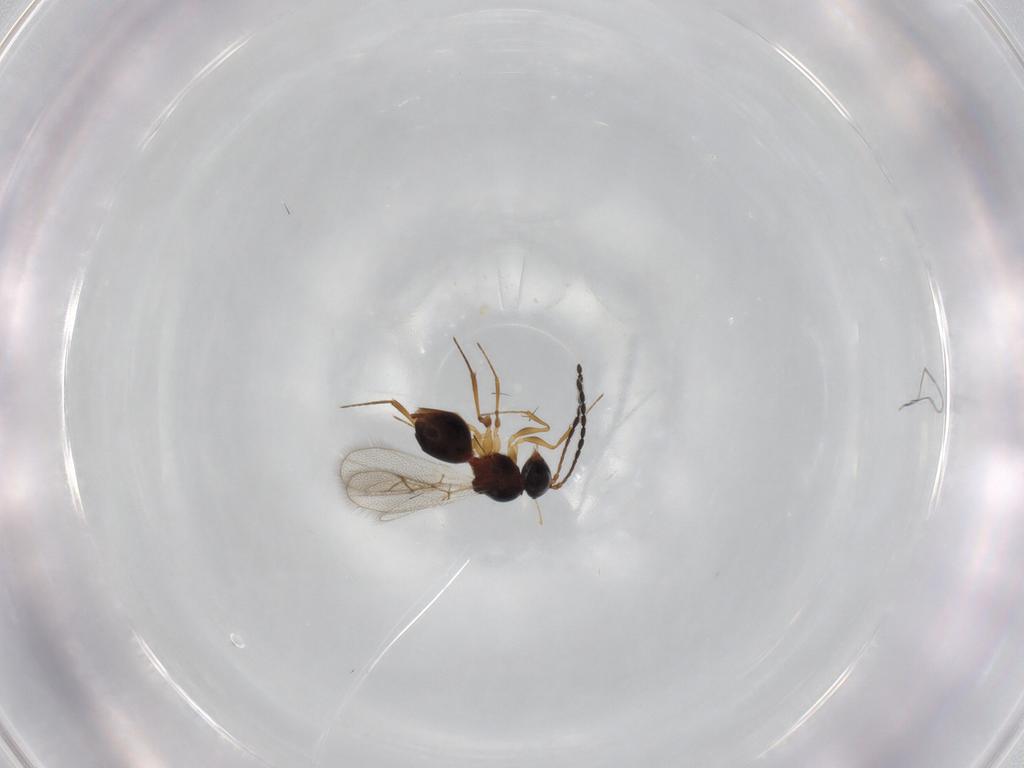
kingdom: Animalia
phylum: Arthropoda
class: Insecta
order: Hymenoptera
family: Figitidae
